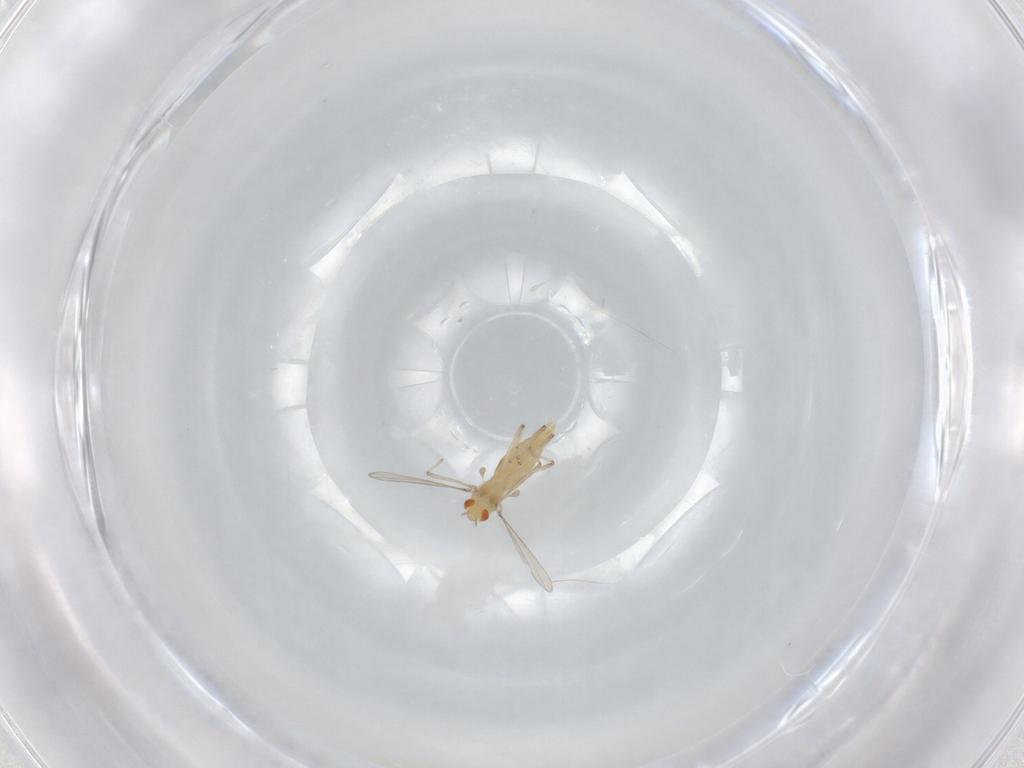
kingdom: Animalia
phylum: Arthropoda
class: Insecta
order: Diptera
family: Chironomidae
